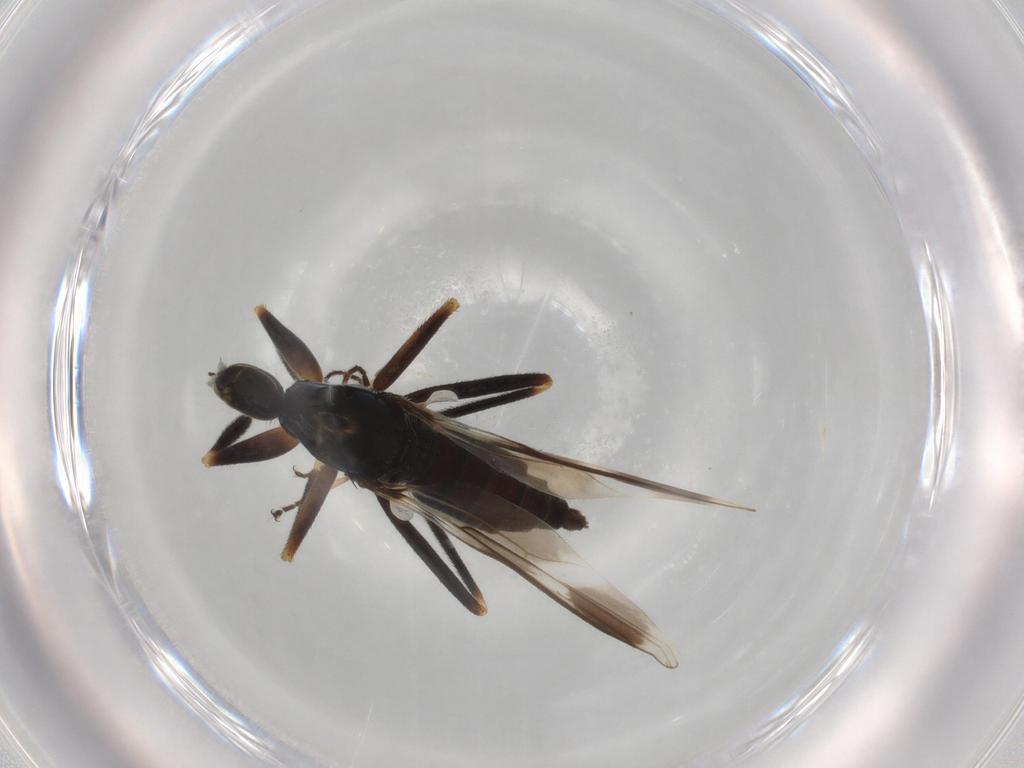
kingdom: Animalia
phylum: Arthropoda
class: Insecta
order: Diptera
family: Hybotidae
